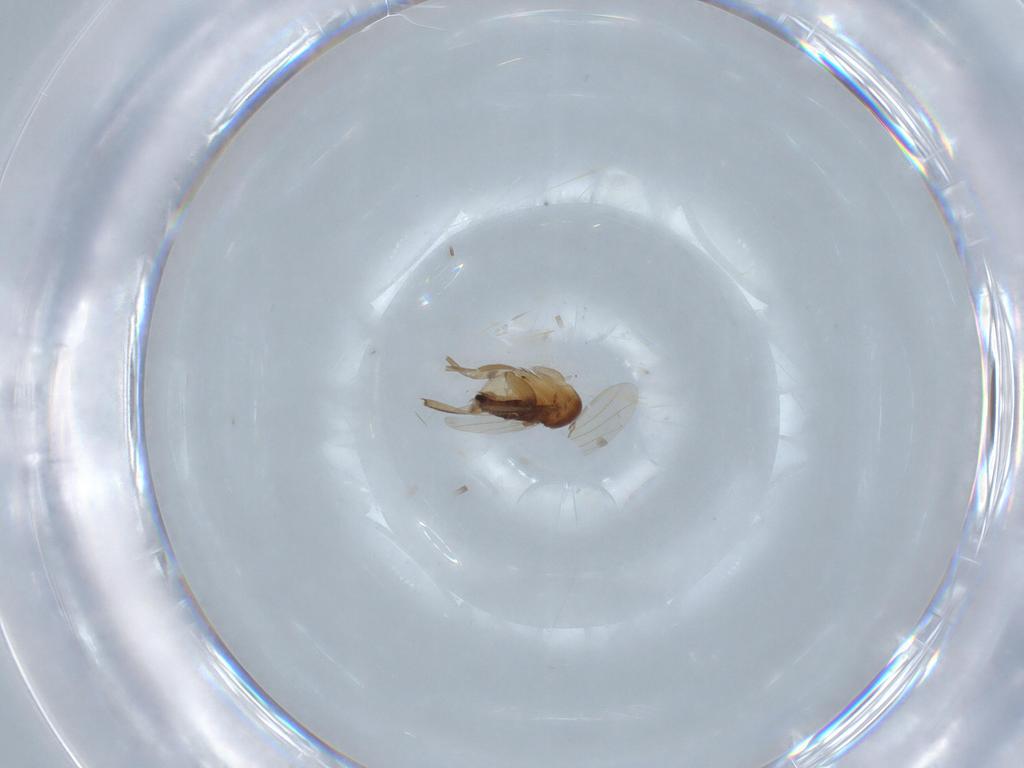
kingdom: Animalia
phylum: Arthropoda
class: Insecta
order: Diptera
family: Phoridae
